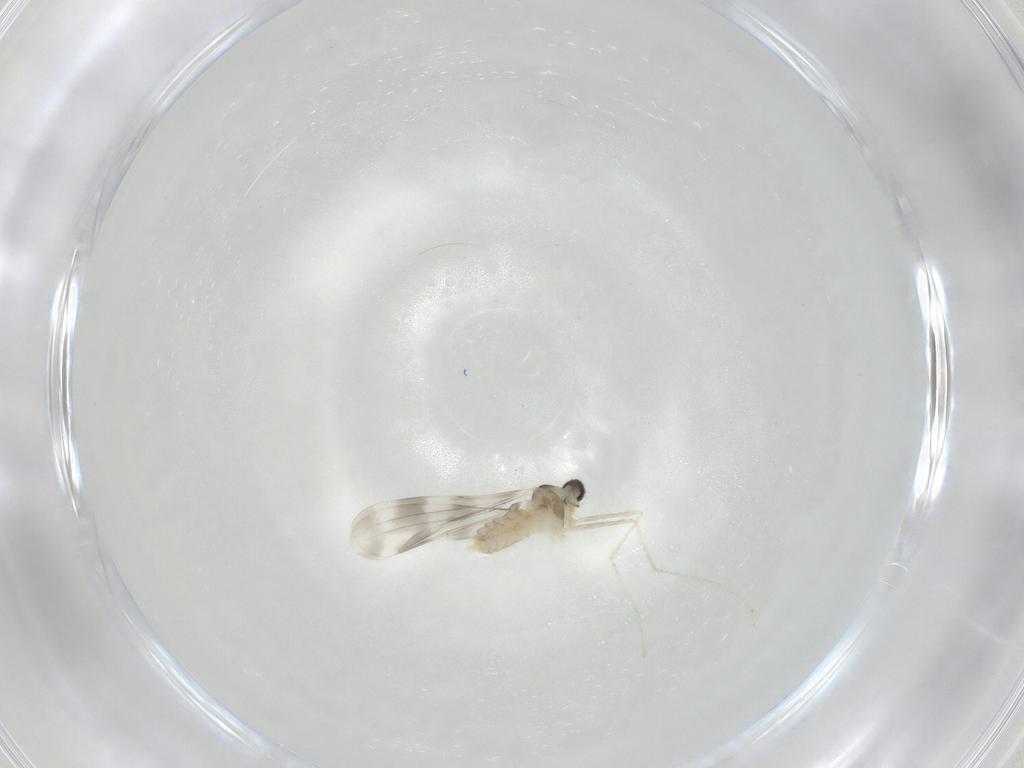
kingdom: Animalia
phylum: Arthropoda
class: Insecta
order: Diptera
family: Cecidomyiidae
